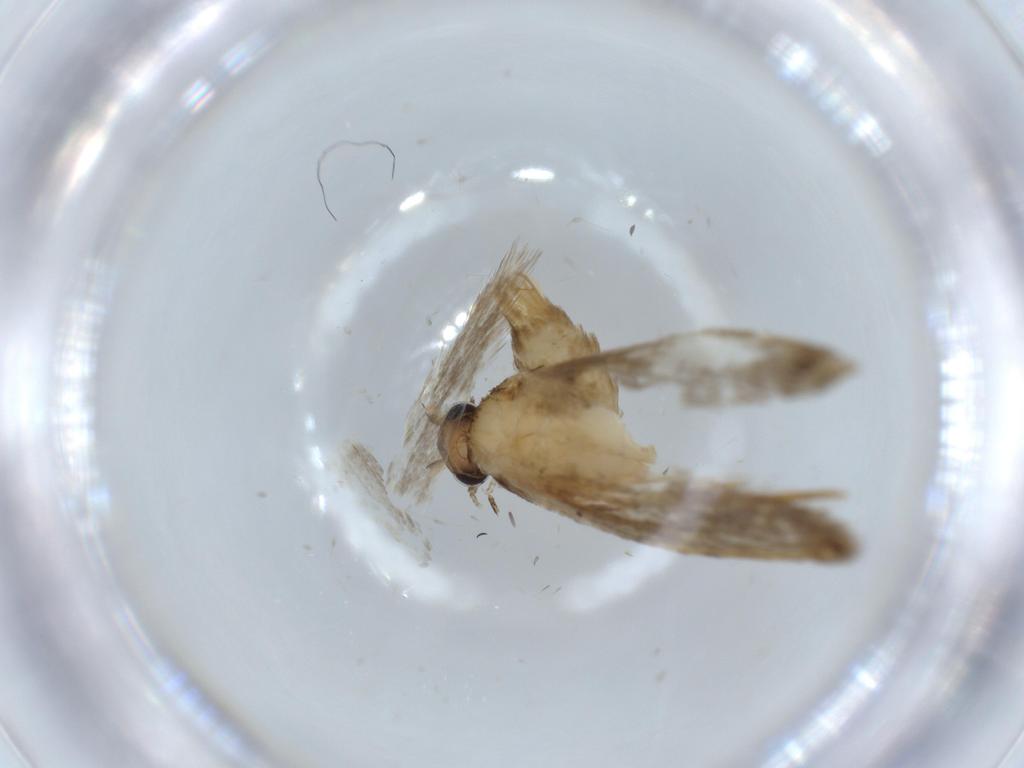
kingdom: Animalia
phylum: Arthropoda
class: Insecta
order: Lepidoptera
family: Tineidae
